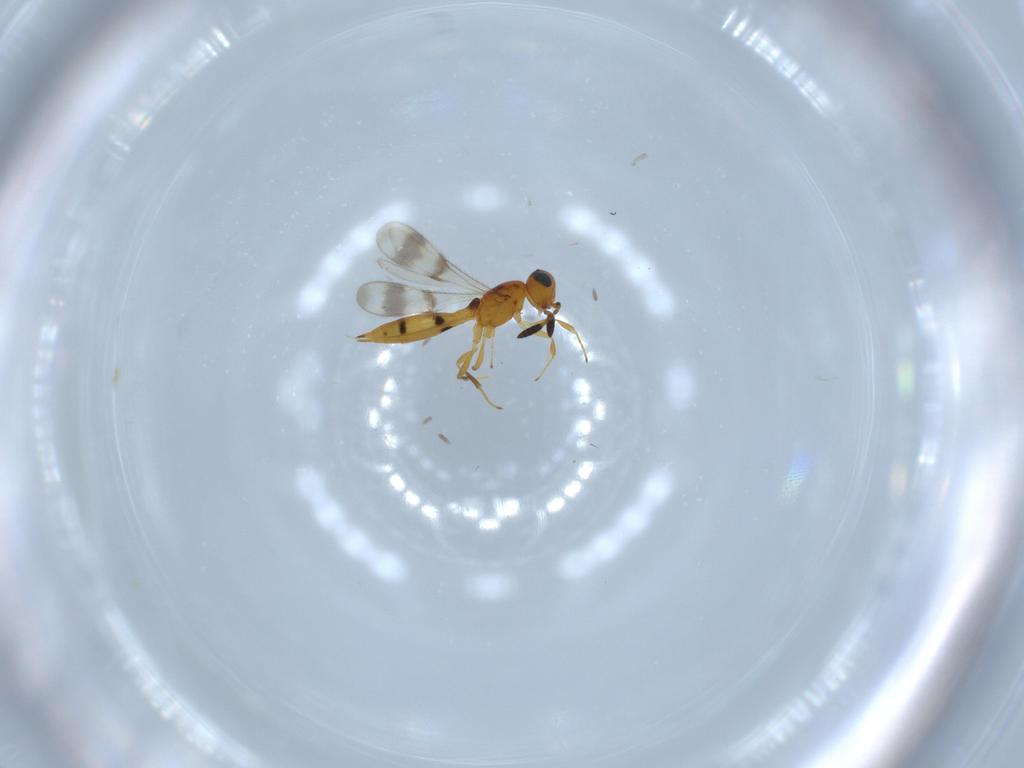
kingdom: Animalia
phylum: Arthropoda
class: Insecta
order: Hymenoptera
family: Scelionidae
